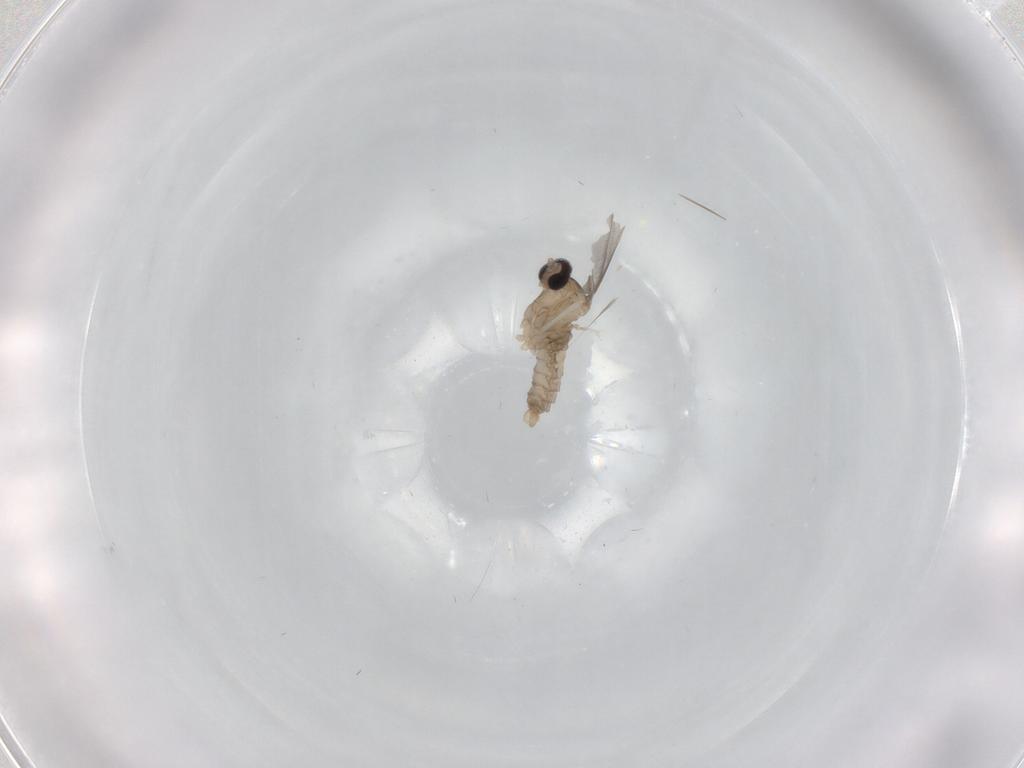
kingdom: Animalia
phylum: Arthropoda
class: Insecta
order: Diptera
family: Cecidomyiidae
